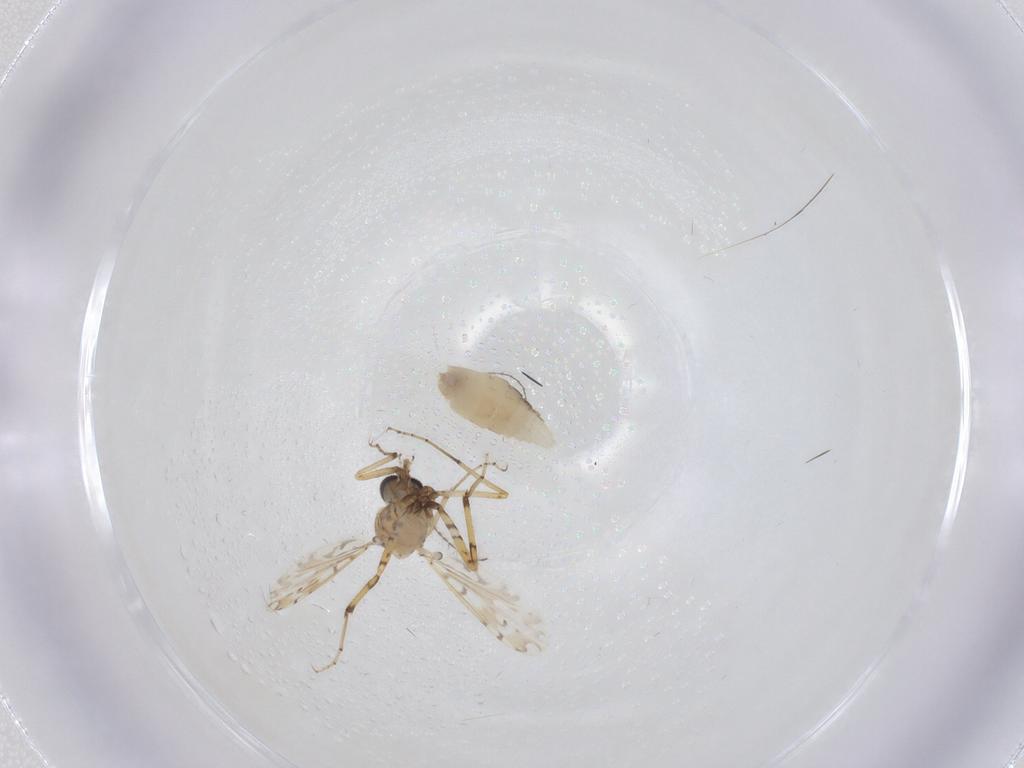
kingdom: Animalia
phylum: Arthropoda
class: Insecta
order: Diptera
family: Ceratopogonidae
